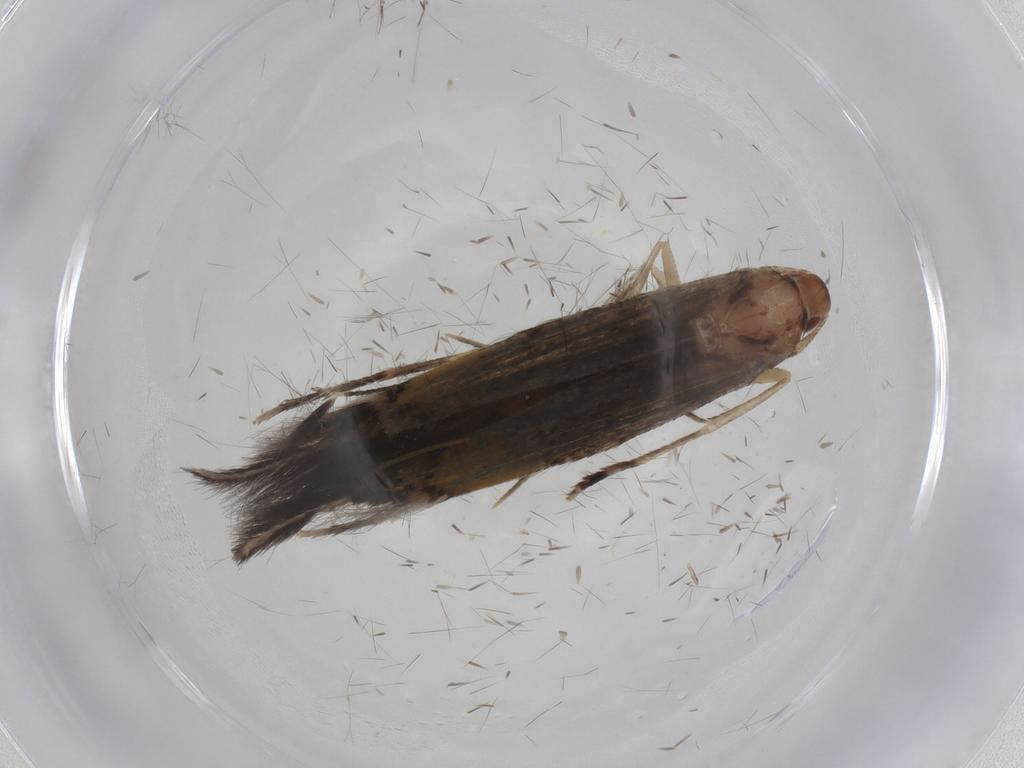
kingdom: Animalia
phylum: Arthropoda
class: Insecta
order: Lepidoptera
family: Cosmopterigidae
